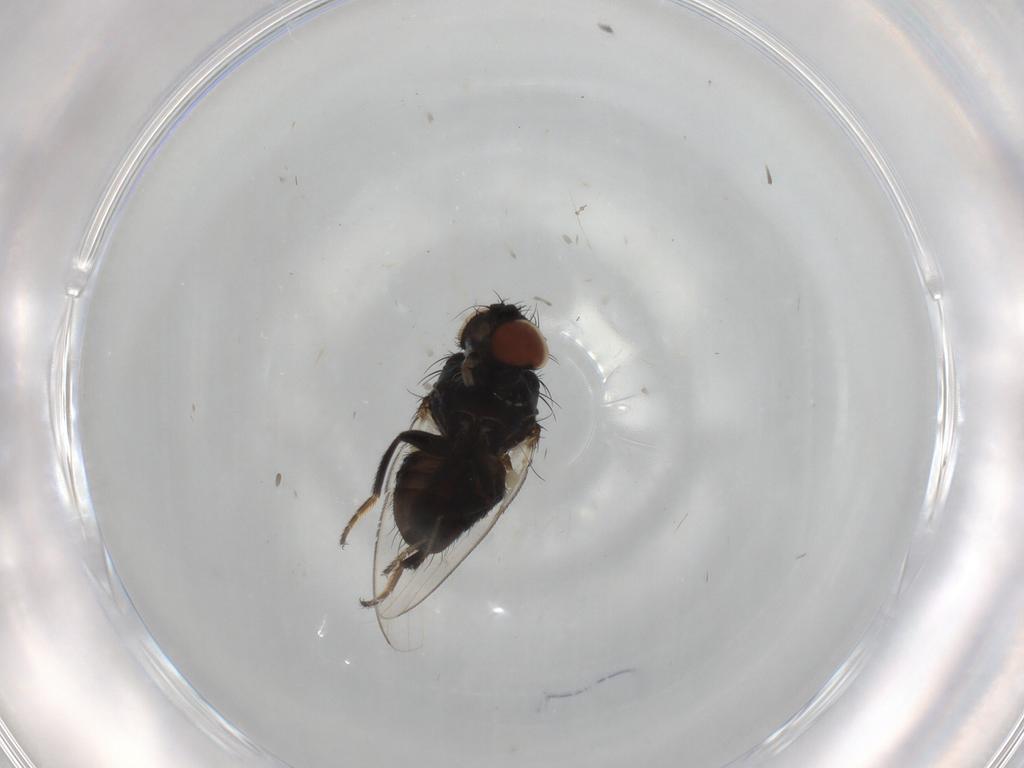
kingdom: Animalia
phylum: Arthropoda
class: Insecta
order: Diptera
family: Milichiidae
